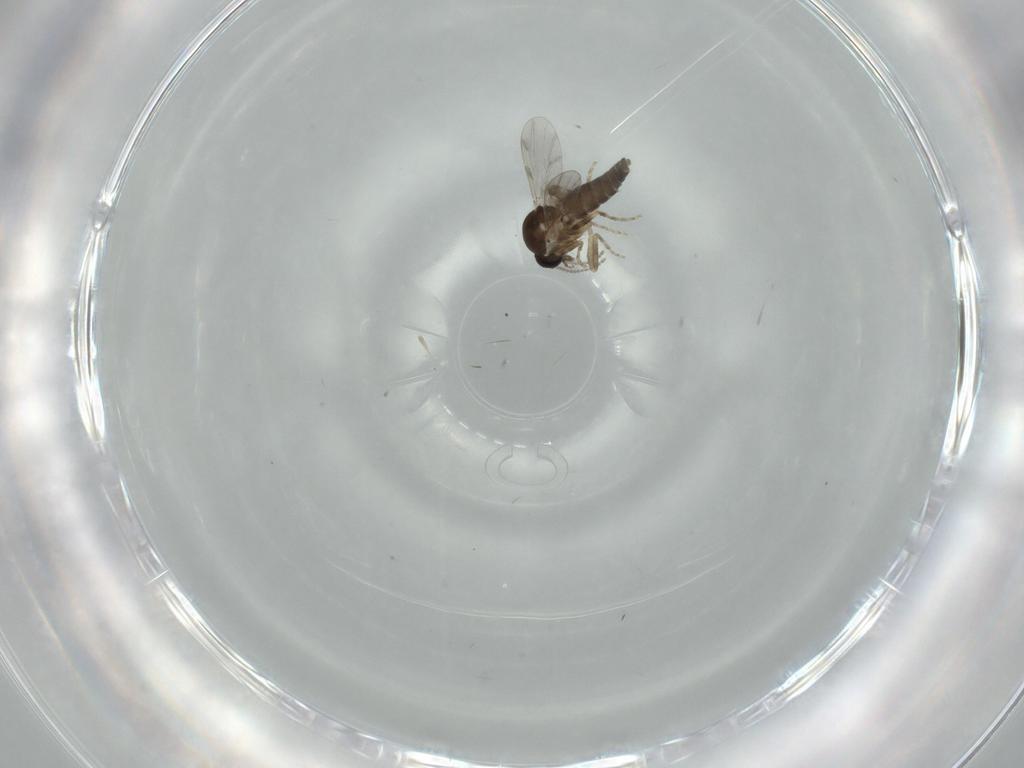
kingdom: Animalia
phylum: Arthropoda
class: Insecta
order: Diptera
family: Ceratopogonidae
